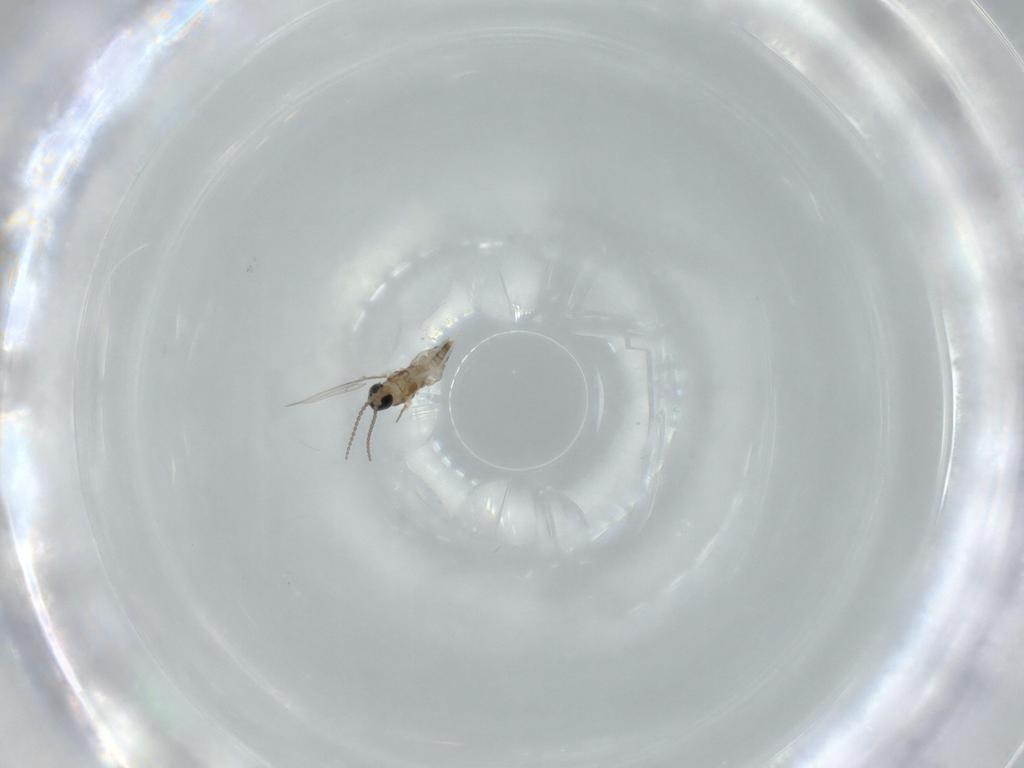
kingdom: Animalia
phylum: Arthropoda
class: Insecta
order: Diptera
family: Cecidomyiidae
